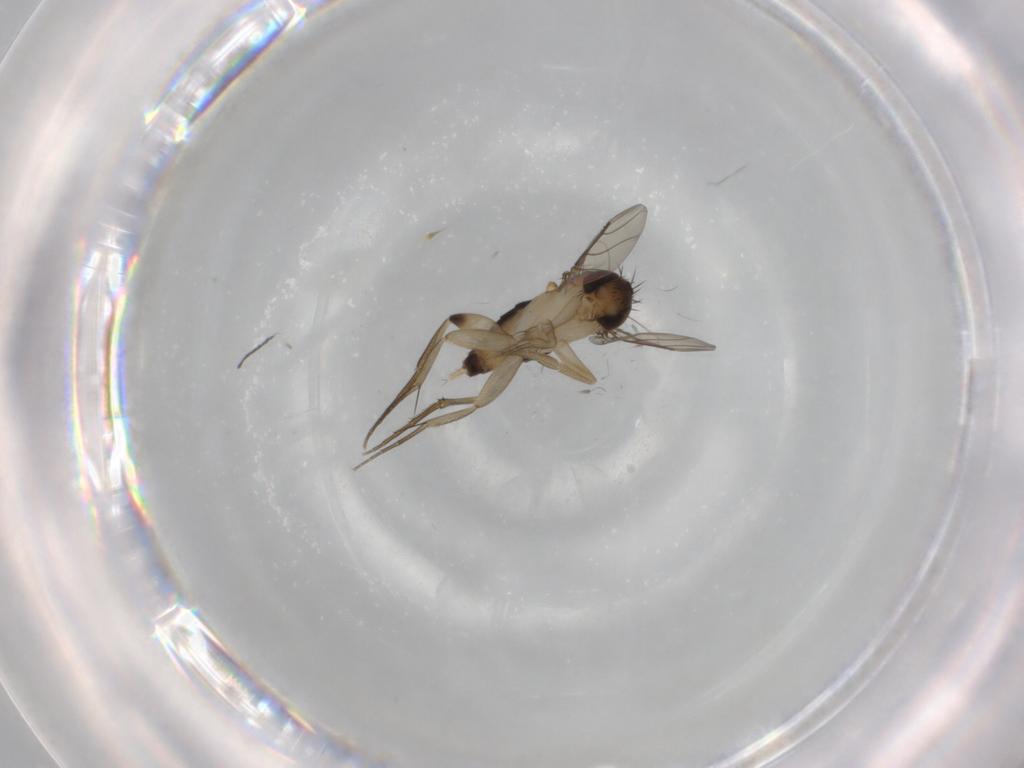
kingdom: Animalia
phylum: Arthropoda
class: Insecta
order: Diptera
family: Phoridae
